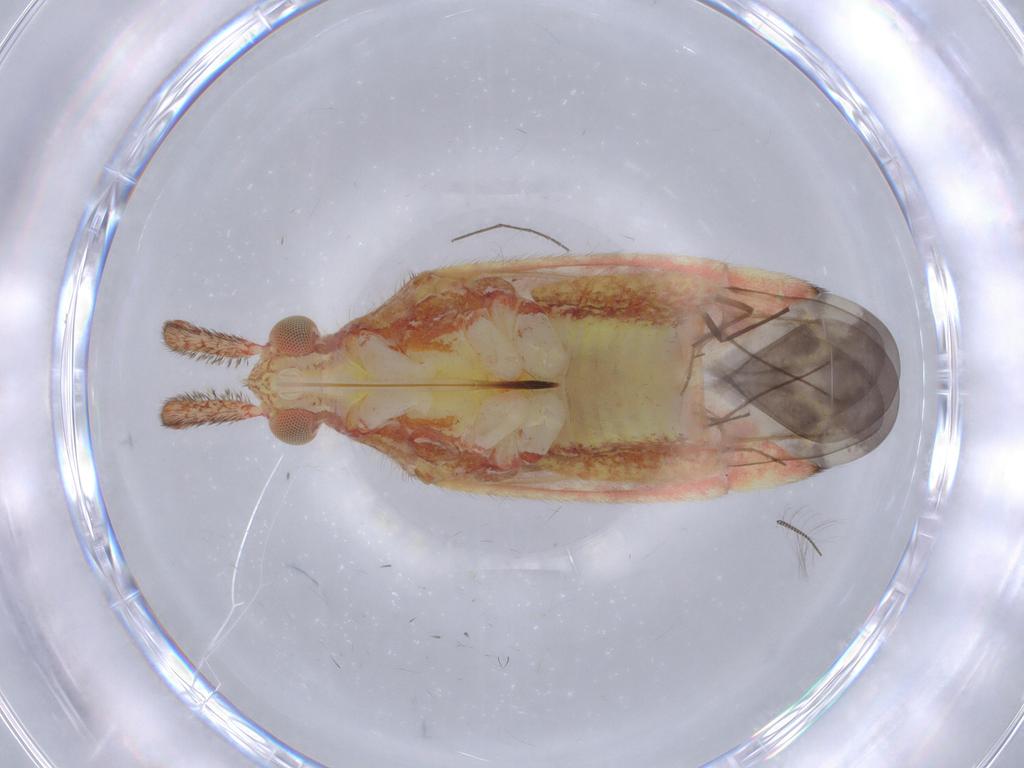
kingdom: Animalia
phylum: Arthropoda
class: Insecta
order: Hemiptera
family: Miridae
